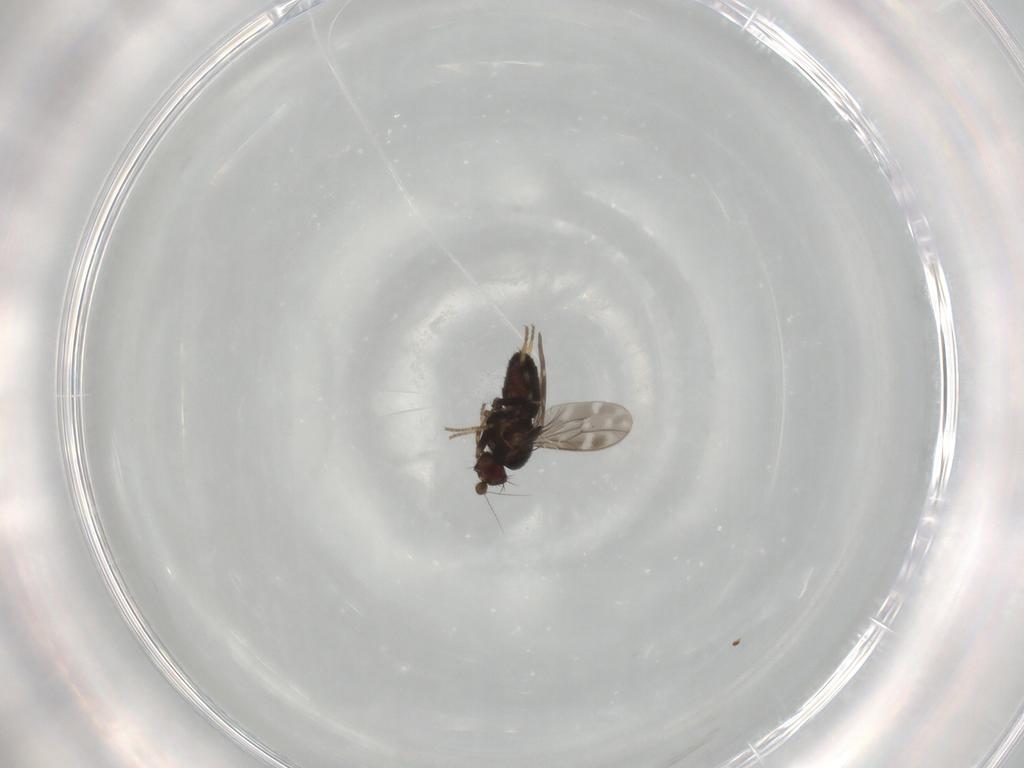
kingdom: Animalia
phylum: Arthropoda
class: Insecta
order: Diptera
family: Sphaeroceridae
